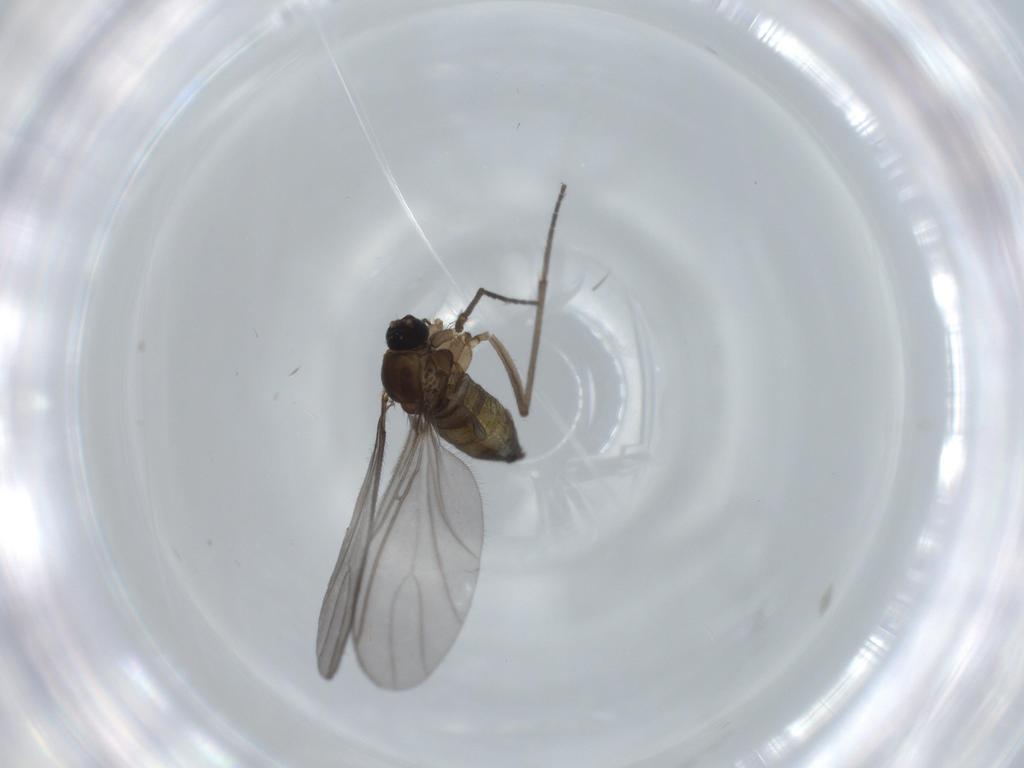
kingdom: Animalia
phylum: Arthropoda
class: Insecta
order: Diptera
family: Sciaridae
